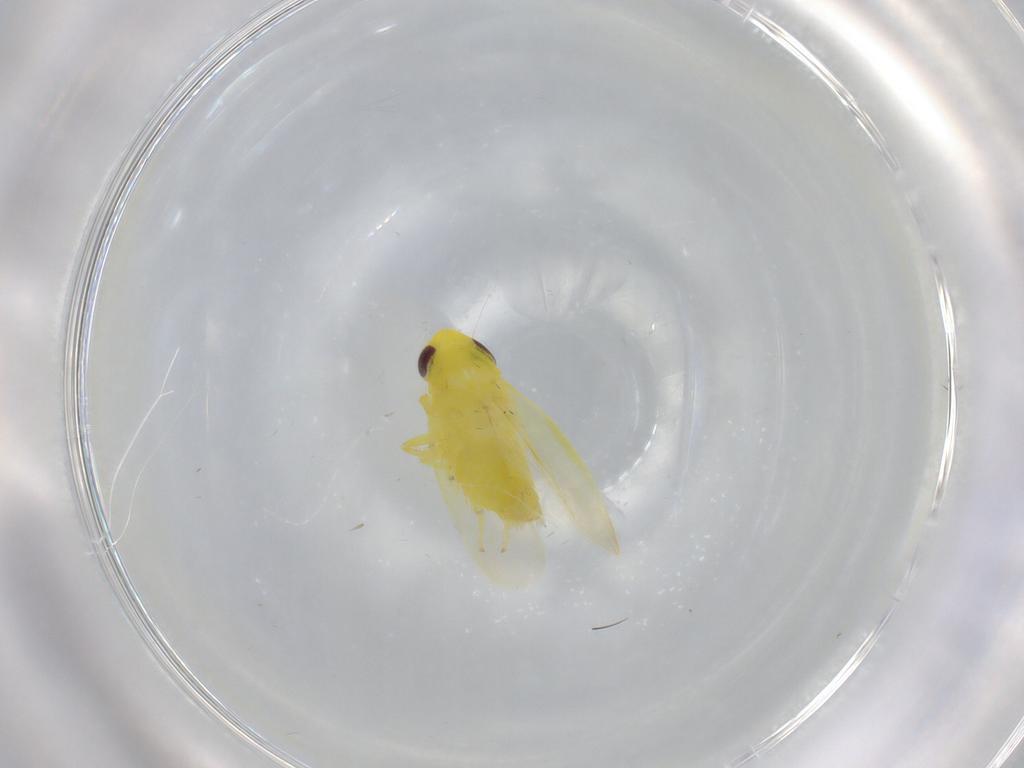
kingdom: Animalia
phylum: Arthropoda
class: Insecta
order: Hemiptera
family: Cicadellidae
